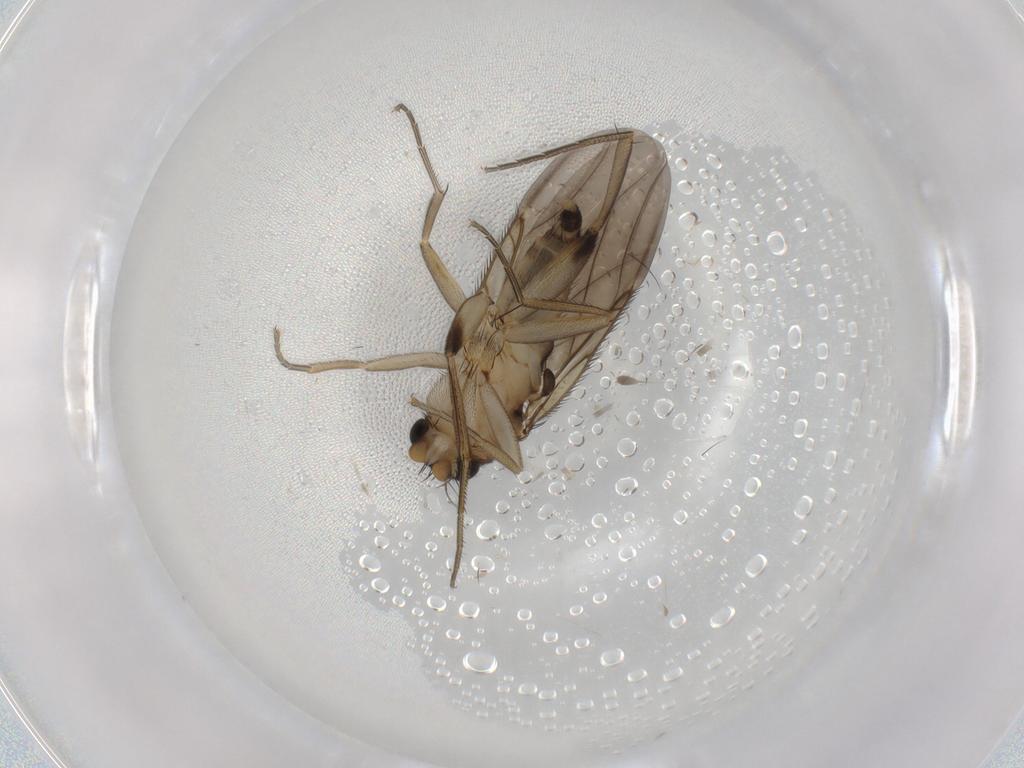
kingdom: Animalia
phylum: Arthropoda
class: Insecta
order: Diptera
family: Phoridae
